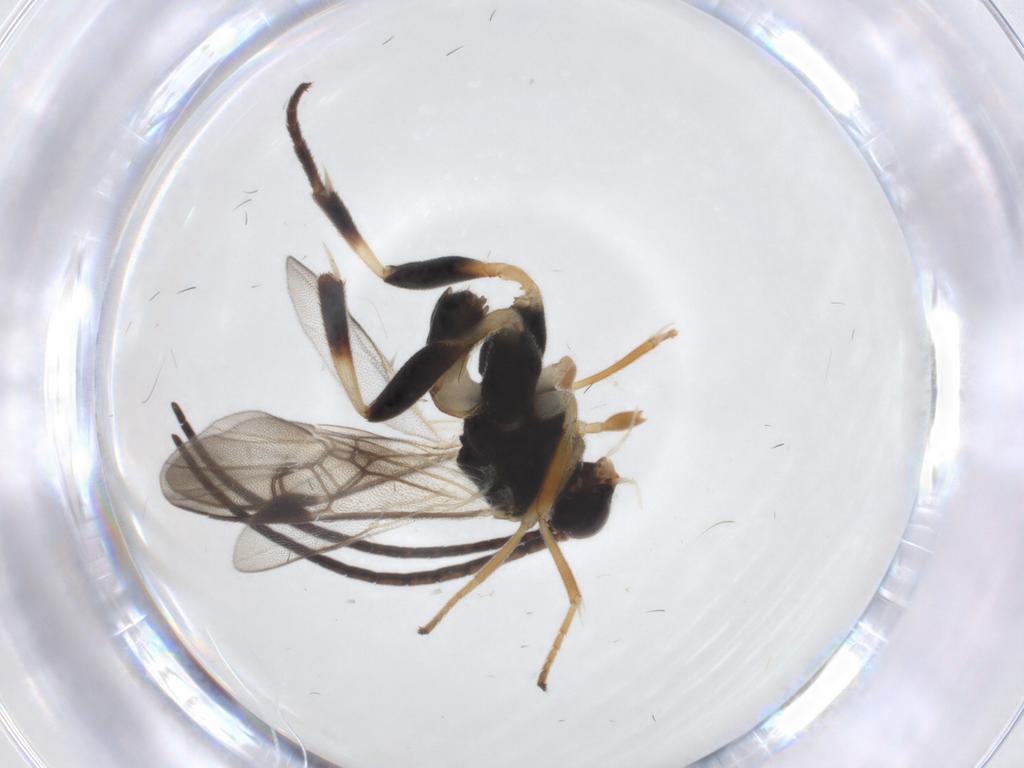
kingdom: Animalia
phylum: Arthropoda
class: Insecta
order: Hymenoptera
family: Braconidae
